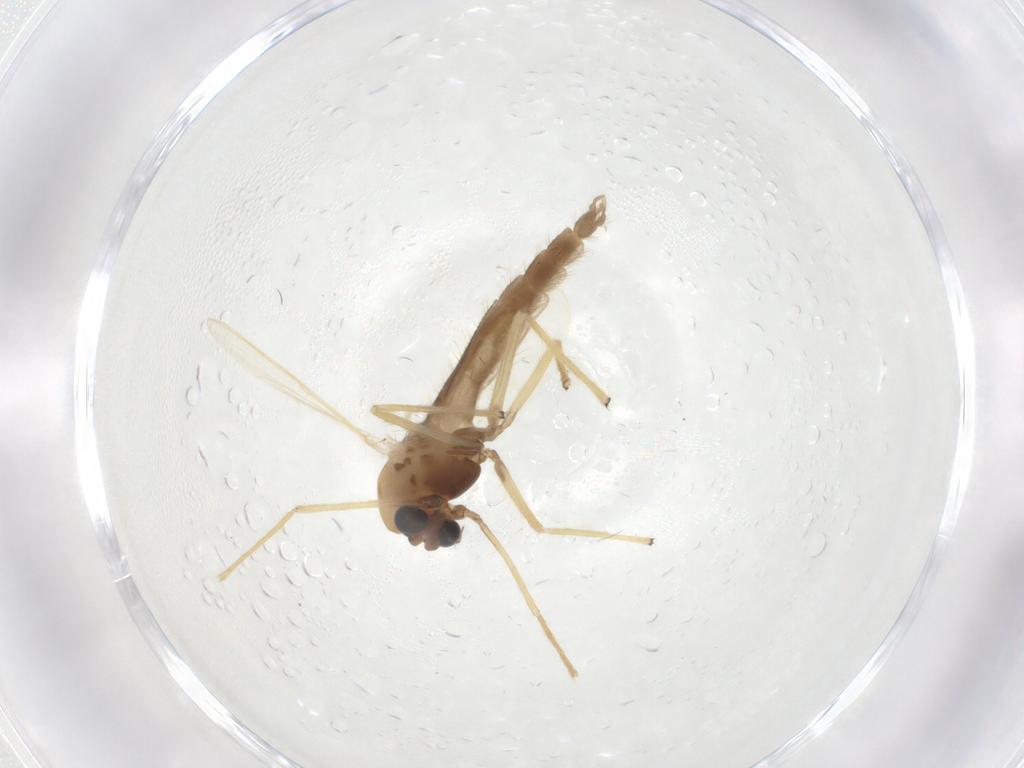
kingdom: Animalia
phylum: Arthropoda
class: Insecta
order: Diptera
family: Chironomidae
